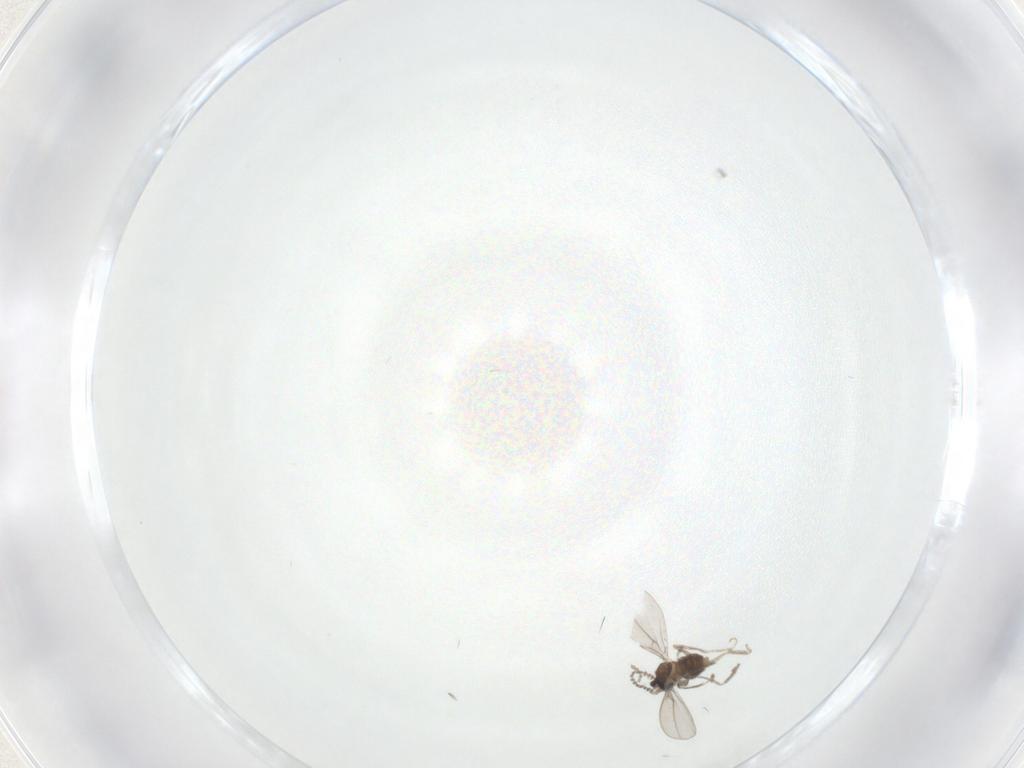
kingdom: Animalia
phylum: Arthropoda
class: Insecta
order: Diptera
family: Cecidomyiidae
